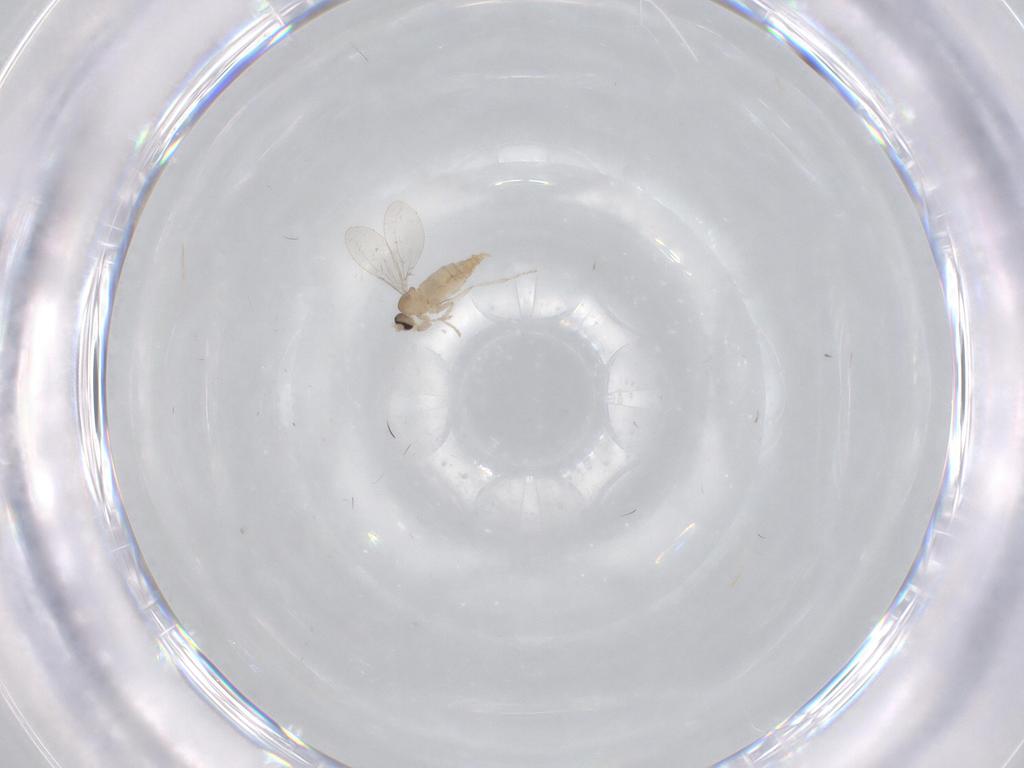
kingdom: Animalia
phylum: Arthropoda
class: Insecta
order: Diptera
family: Cecidomyiidae
